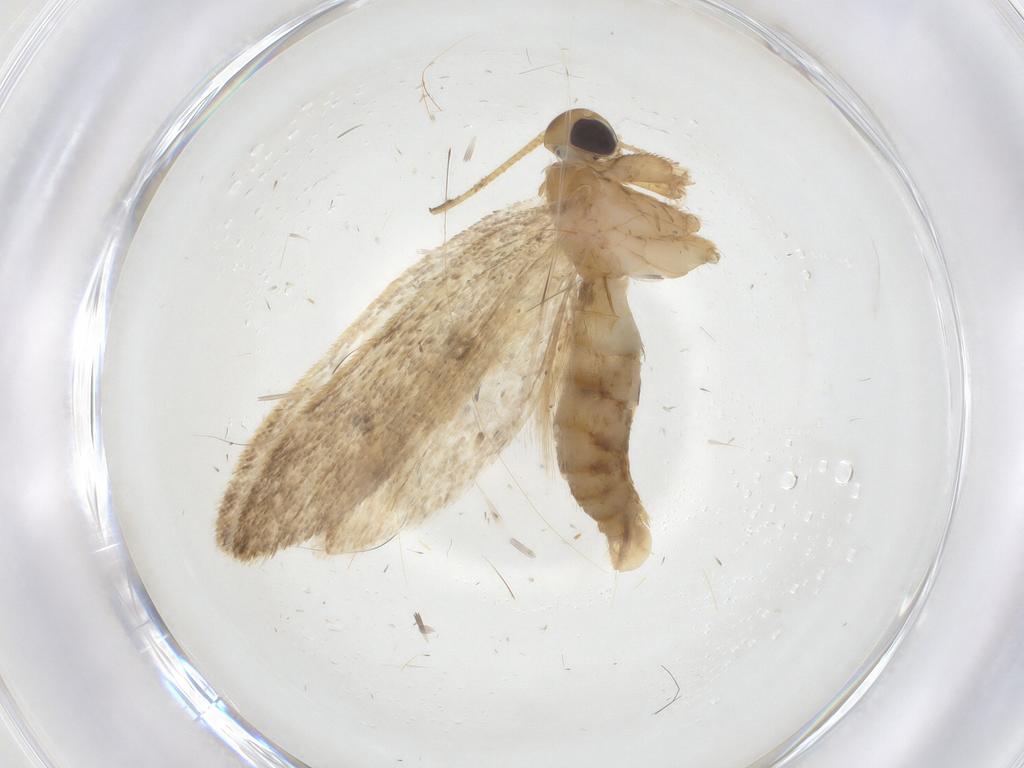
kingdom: Animalia
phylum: Arthropoda
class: Insecta
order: Lepidoptera
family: Oecophoridae
